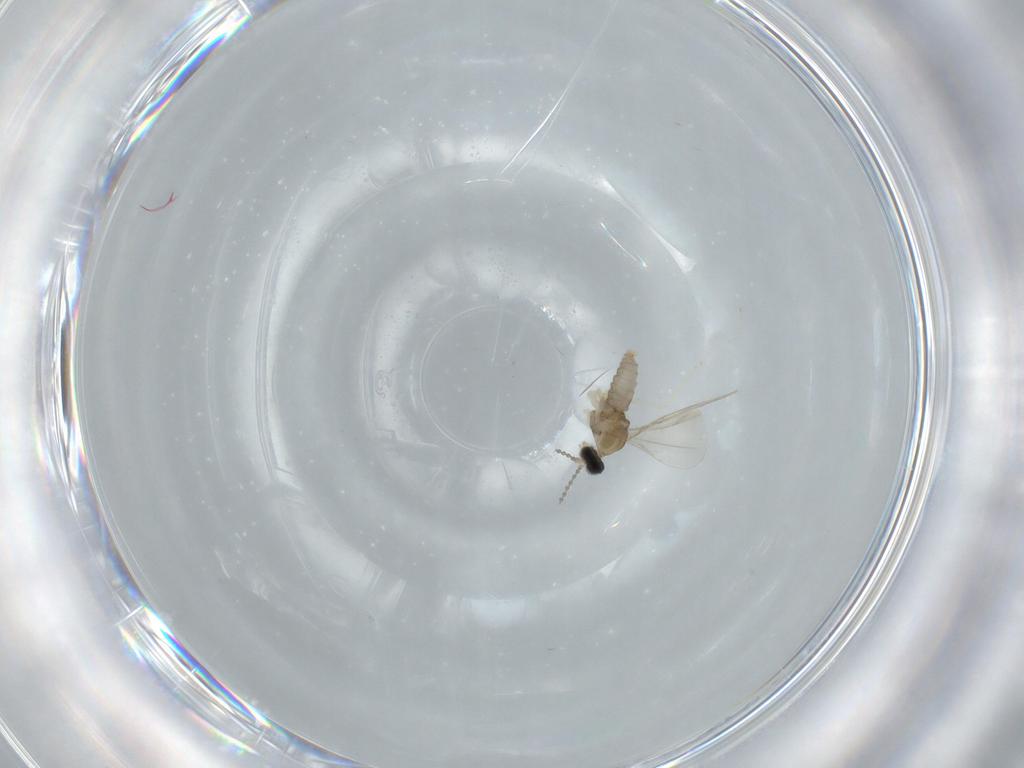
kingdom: Animalia
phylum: Arthropoda
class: Insecta
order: Diptera
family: Cecidomyiidae
